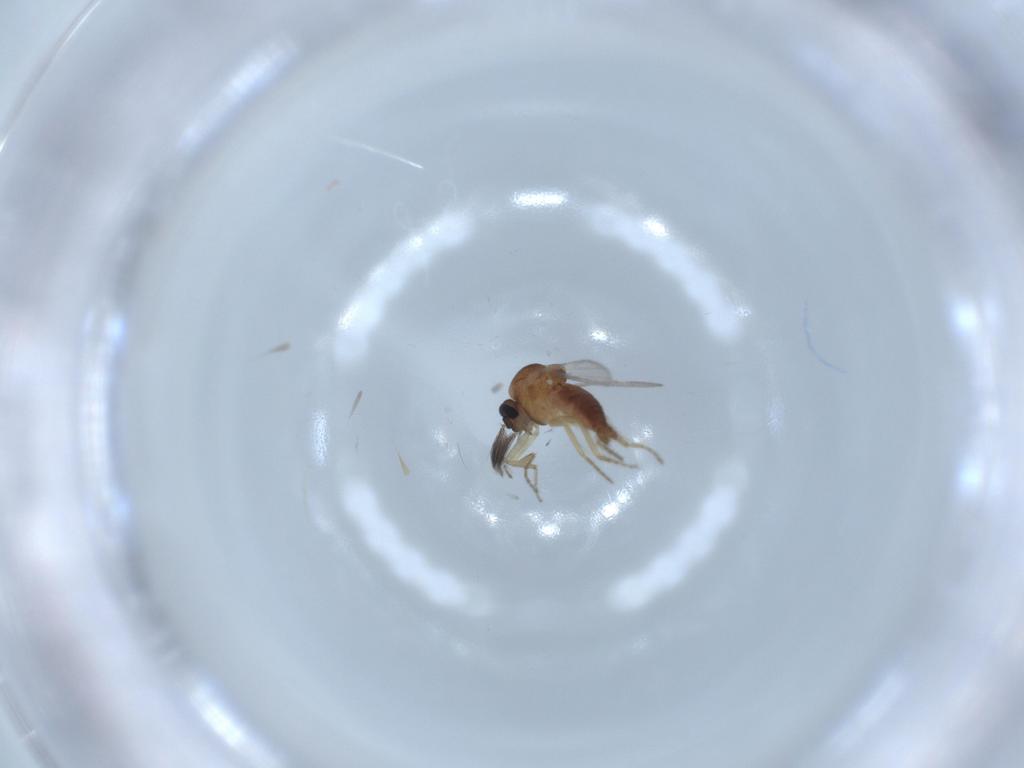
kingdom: Animalia
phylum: Arthropoda
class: Insecta
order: Diptera
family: Ceratopogonidae
